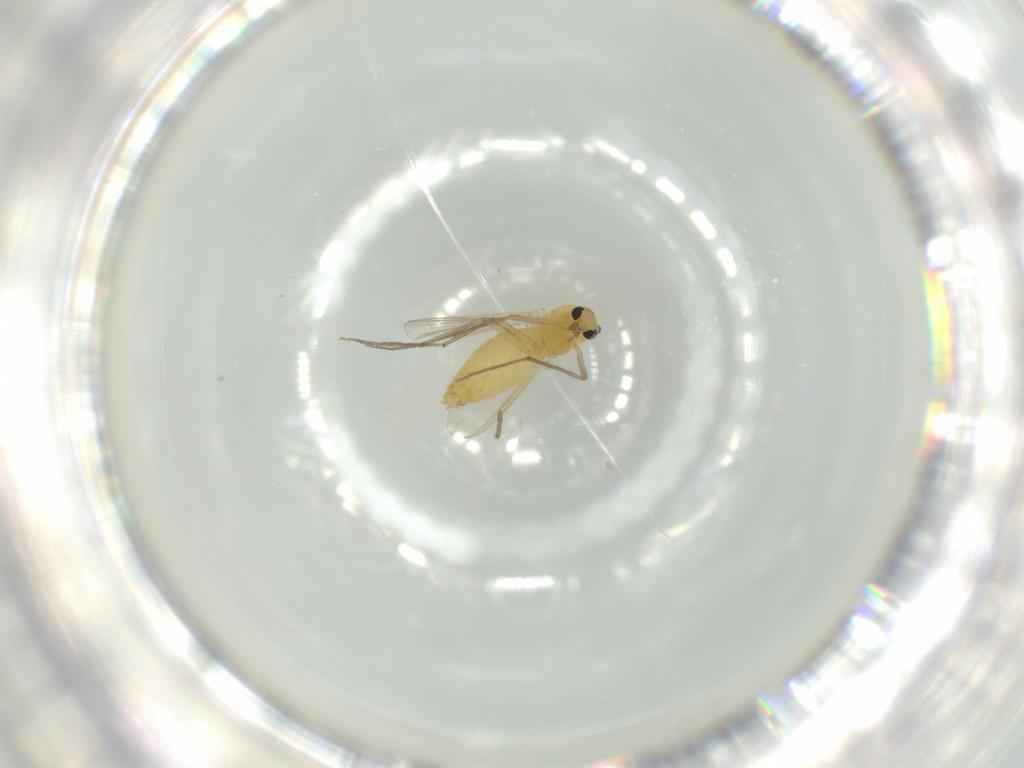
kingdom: Animalia
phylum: Arthropoda
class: Insecta
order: Diptera
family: Chironomidae
